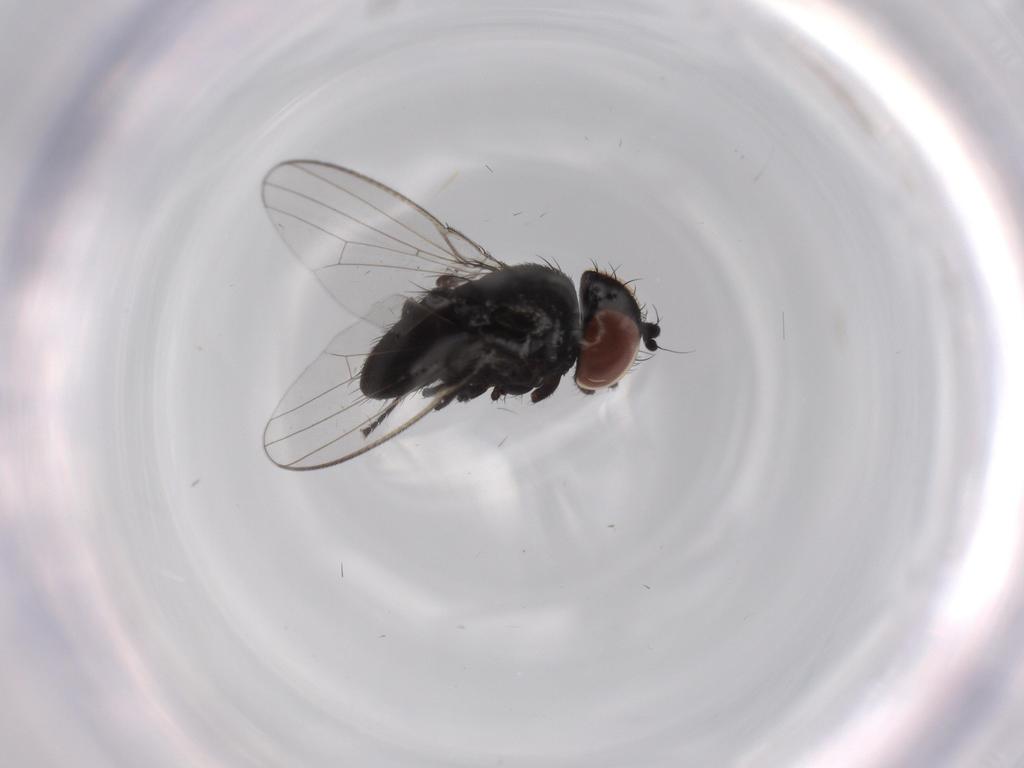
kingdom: Animalia
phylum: Arthropoda
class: Insecta
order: Diptera
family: Milichiidae
